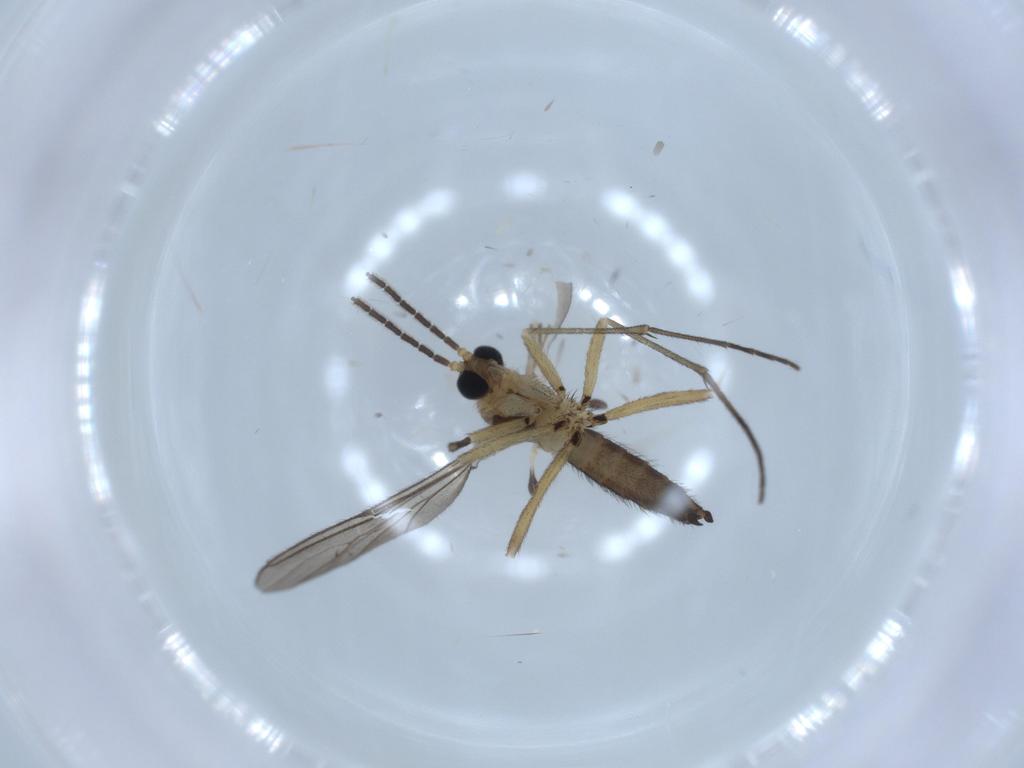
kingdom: Animalia
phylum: Arthropoda
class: Insecta
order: Diptera
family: Sciaridae
